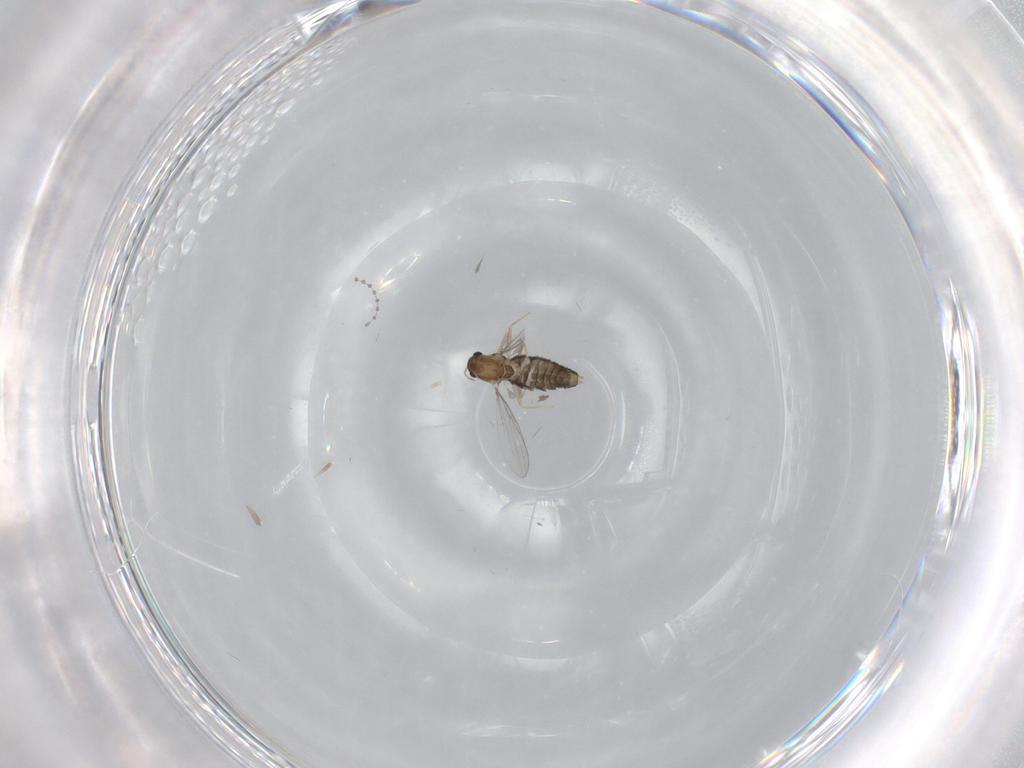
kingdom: Animalia
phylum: Arthropoda
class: Insecta
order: Diptera
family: Chironomidae
